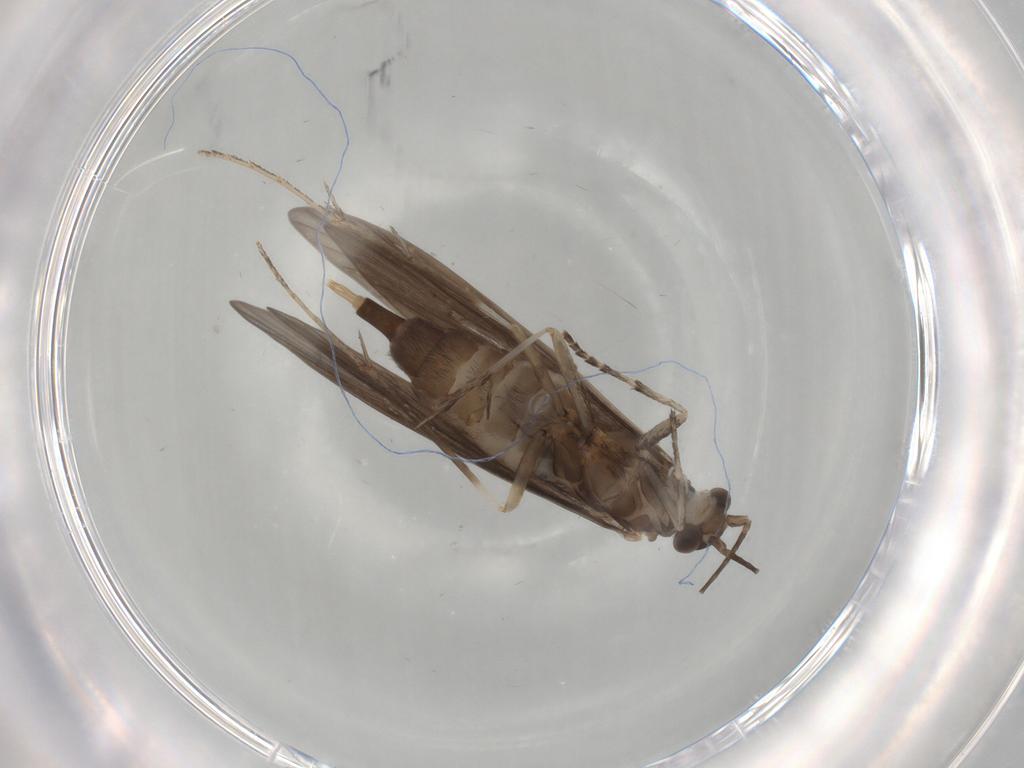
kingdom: Animalia
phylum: Arthropoda
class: Insecta
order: Trichoptera
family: Xiphocentronidae
